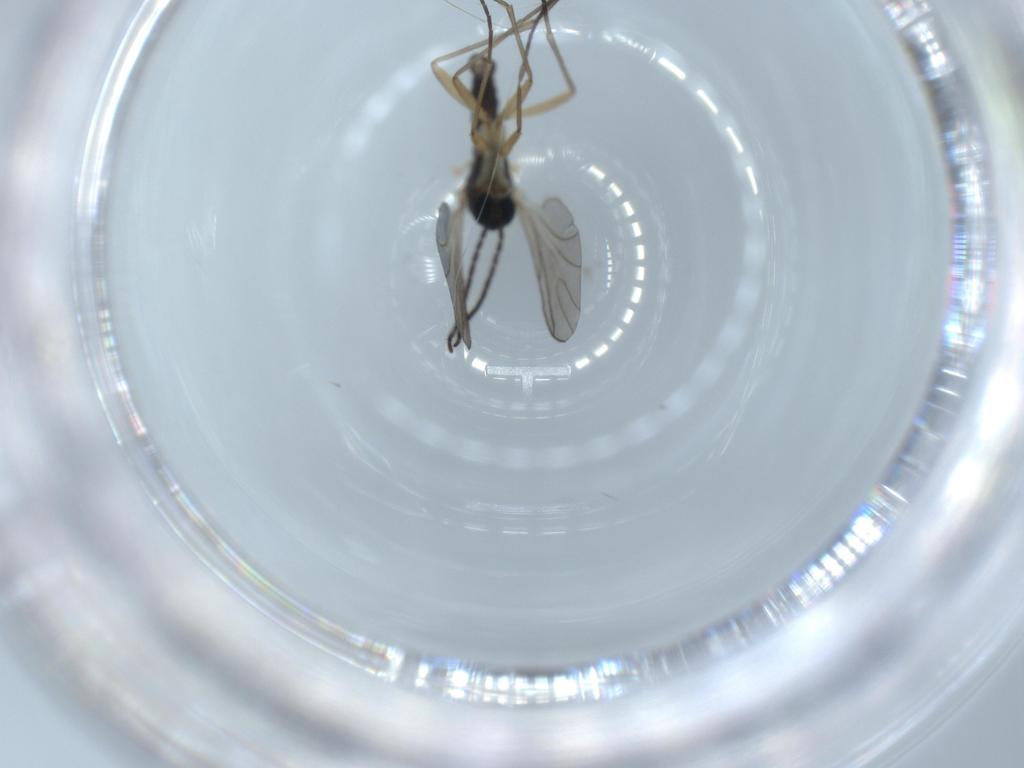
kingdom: Animalia
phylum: Arthropoda
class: Insecta
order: Diptera
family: Sciaridae
